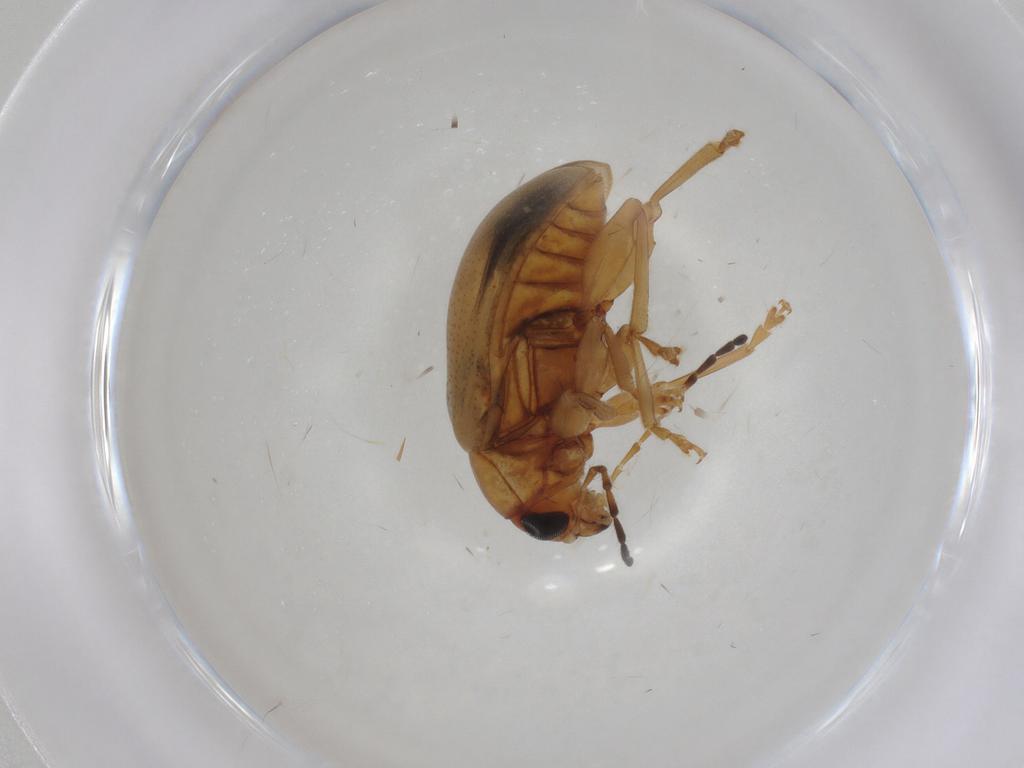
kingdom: Animalia
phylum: Arthropoda
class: Insecta
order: Coleoptera
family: Chrysomelidae
